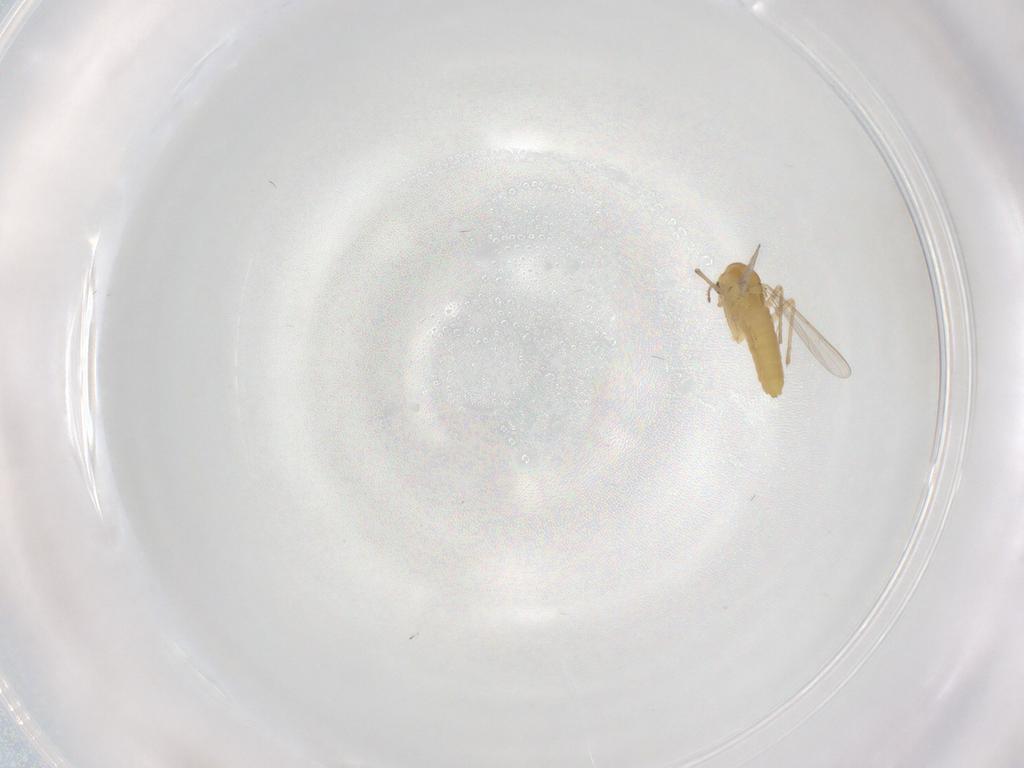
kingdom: Animalia
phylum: Arthropoda
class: Insecta
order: Diptera
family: Chironomidae
